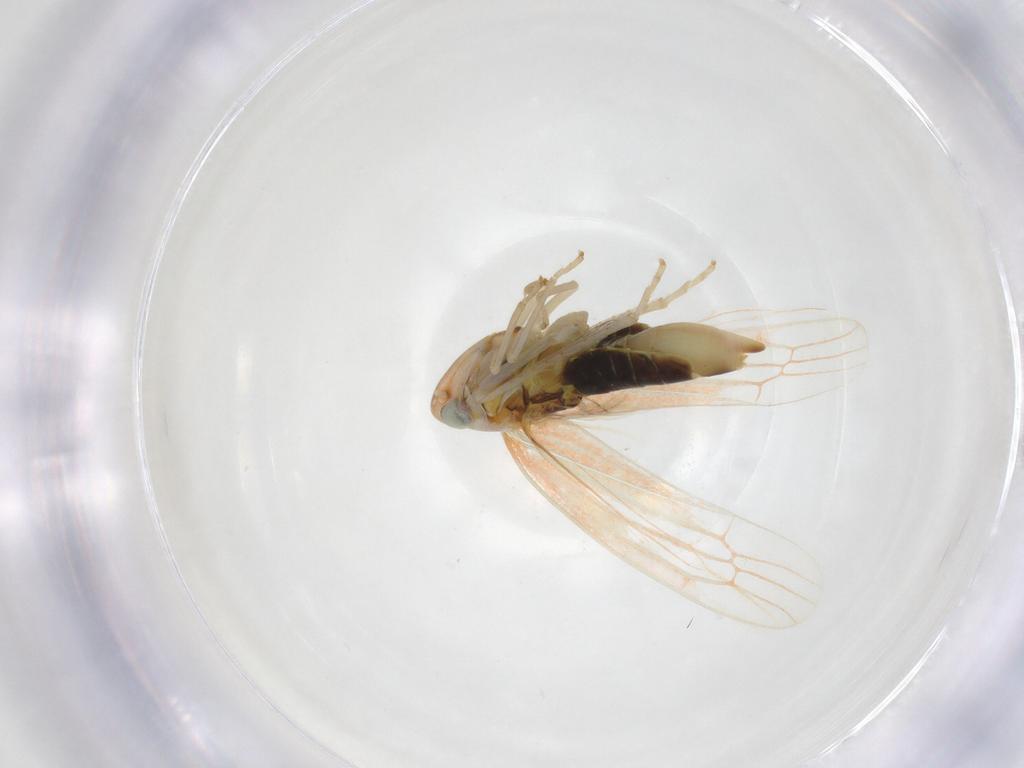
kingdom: Animalia
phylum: Arthropoda
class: Insecta
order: Hemiptera
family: Cicadellidae
